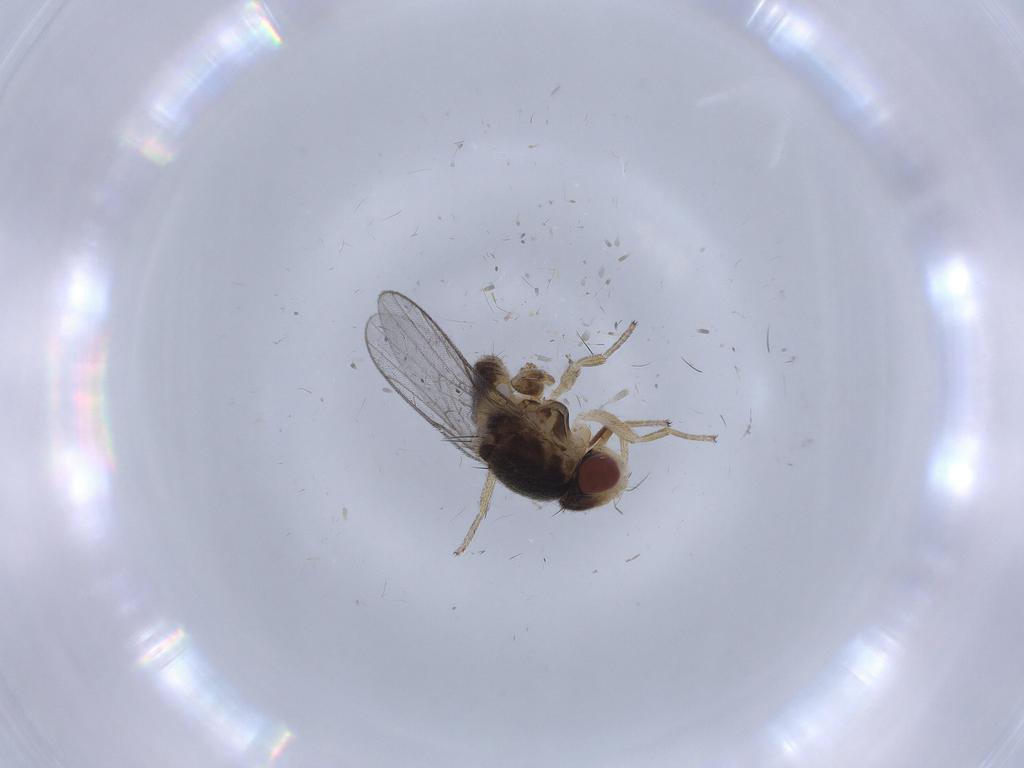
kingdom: Animalia
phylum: Arthropoda
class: Insecta
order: Diptera
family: Chloropidae
